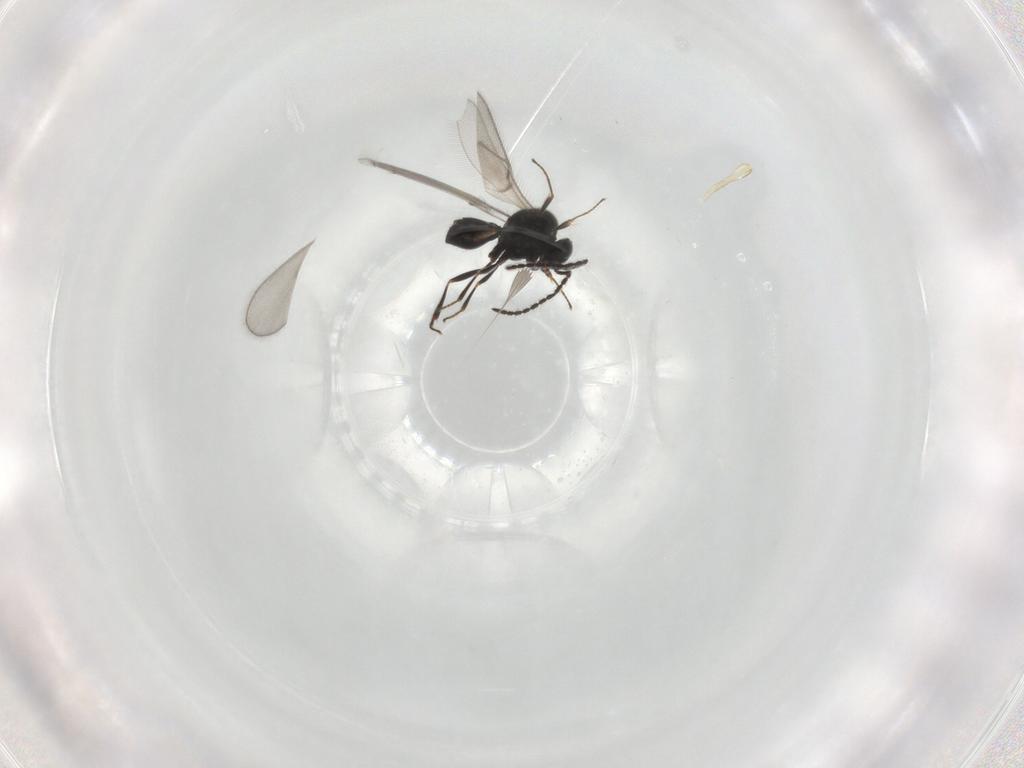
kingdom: Animalia
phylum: Arthropoda
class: Insecta
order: Hymenoptera
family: Scelionidae
